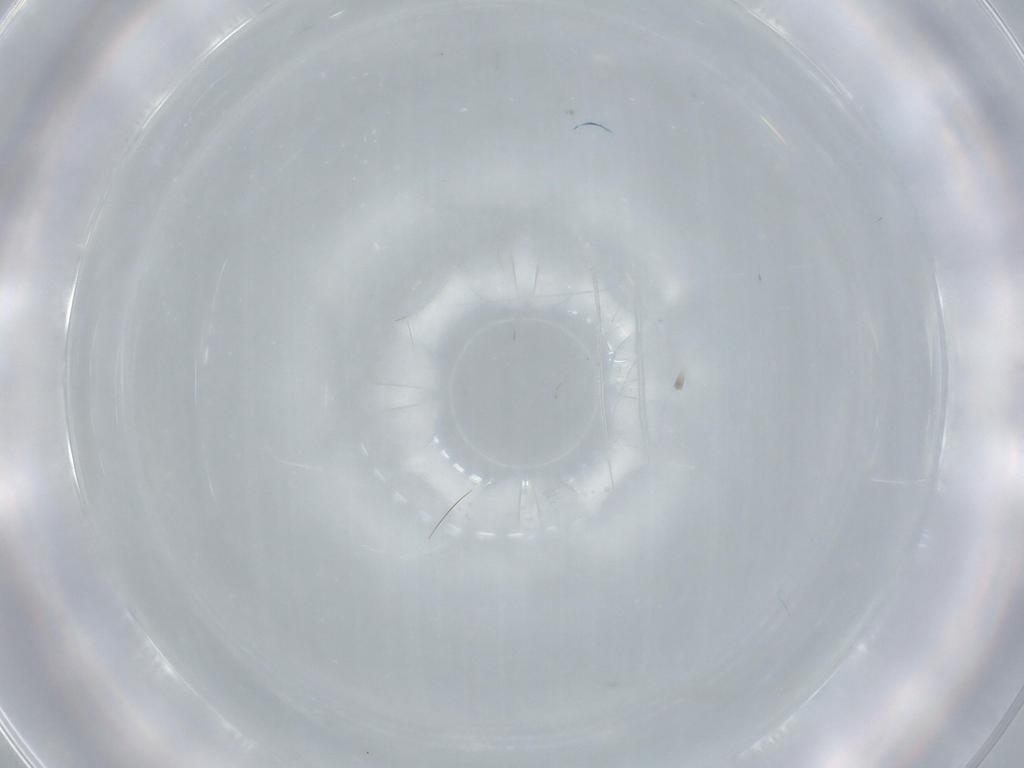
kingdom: Animalia
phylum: Arthropoda
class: Insecta
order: Diptera
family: Cecidomyiidae
